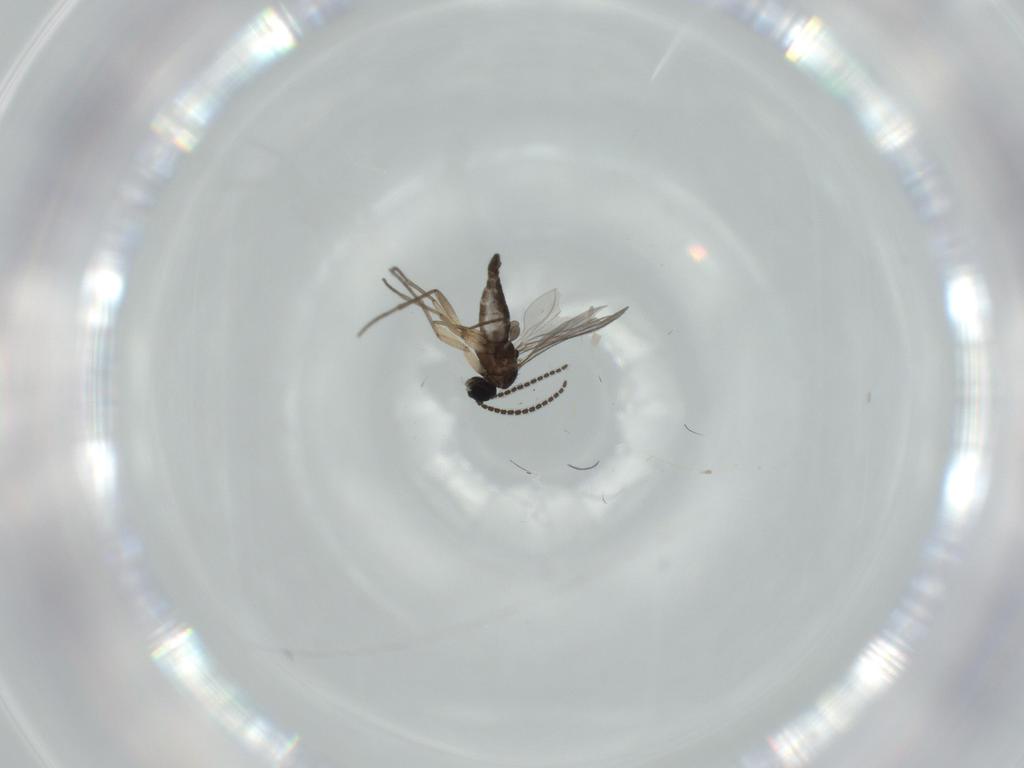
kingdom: Animalia
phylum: Arthropoda
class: Insecta
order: Diptera
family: Sciaridae
